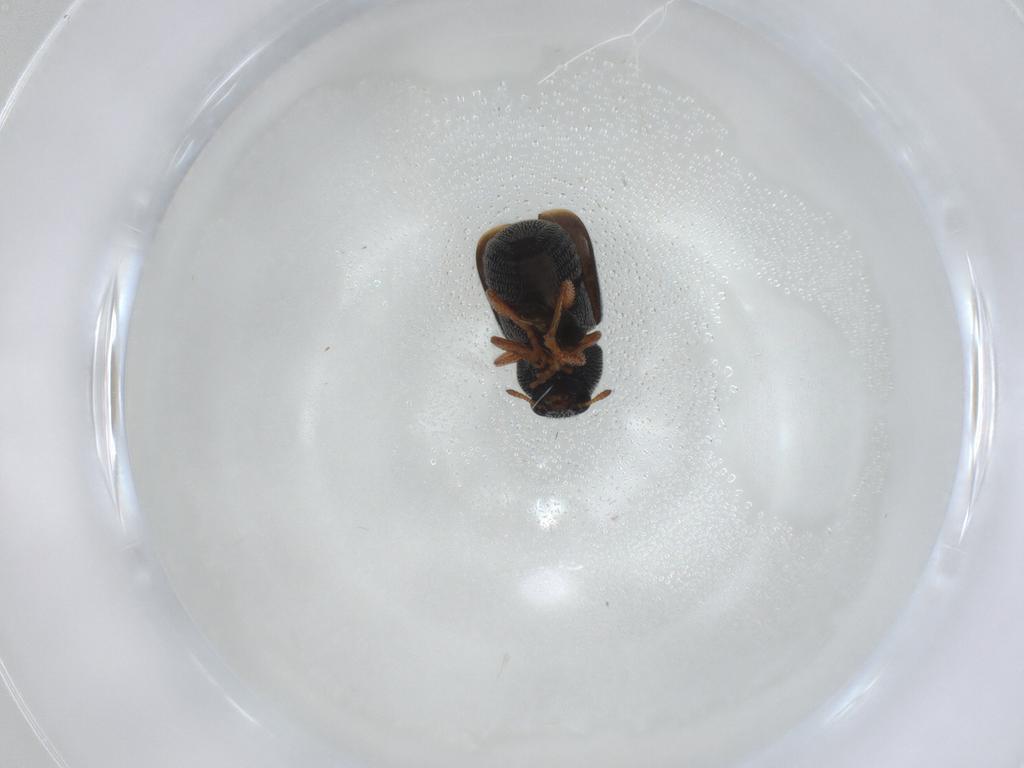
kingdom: Animalia
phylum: Arthropoda
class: Insecta
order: Coleoptera
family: Anthribidae
